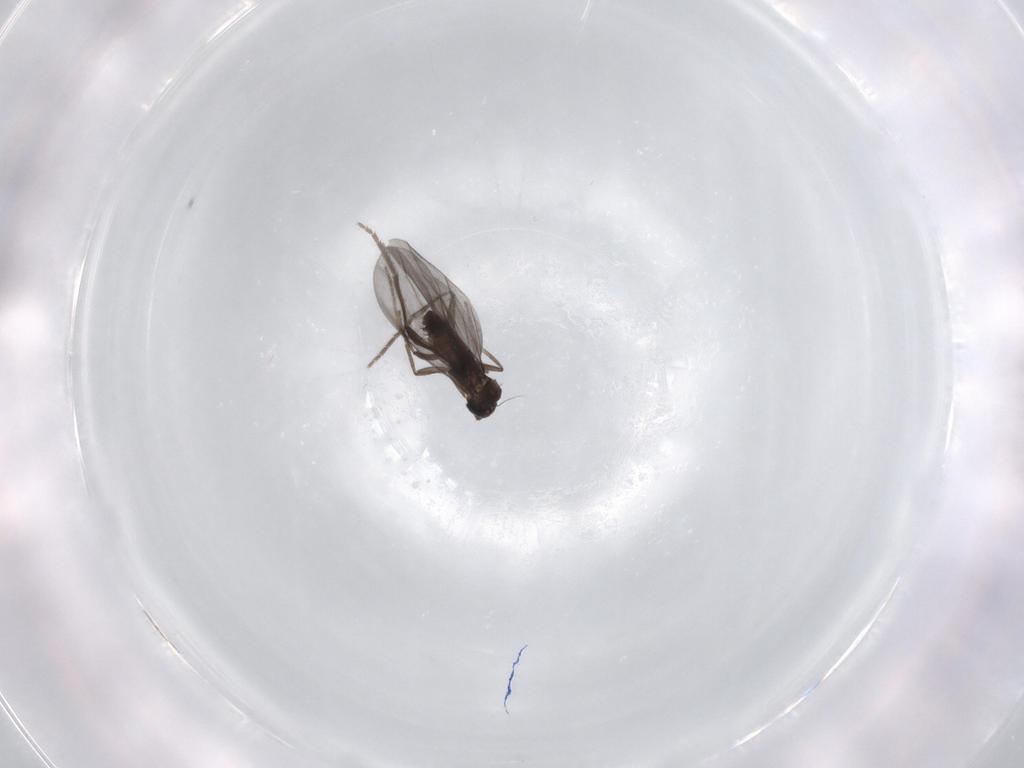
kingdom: Animalia
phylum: Arthropoda
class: Insecta
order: Diptera
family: Phoridae
